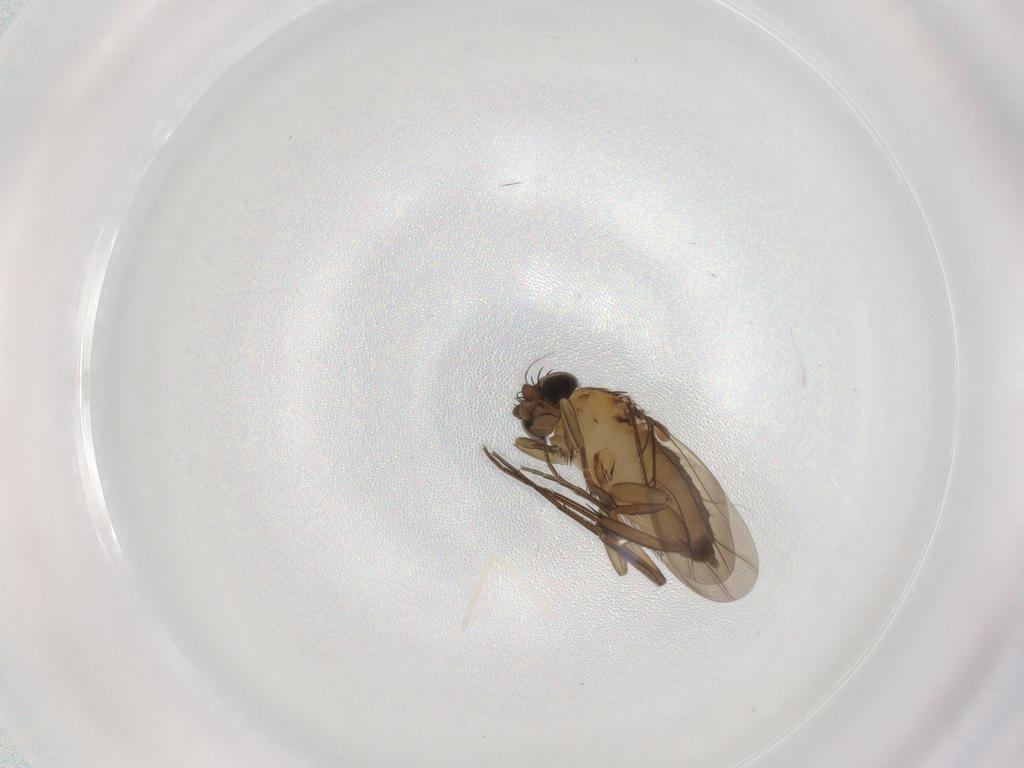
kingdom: Animalia
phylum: Arthropoda
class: Insecta
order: Diptera
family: Phoridae
